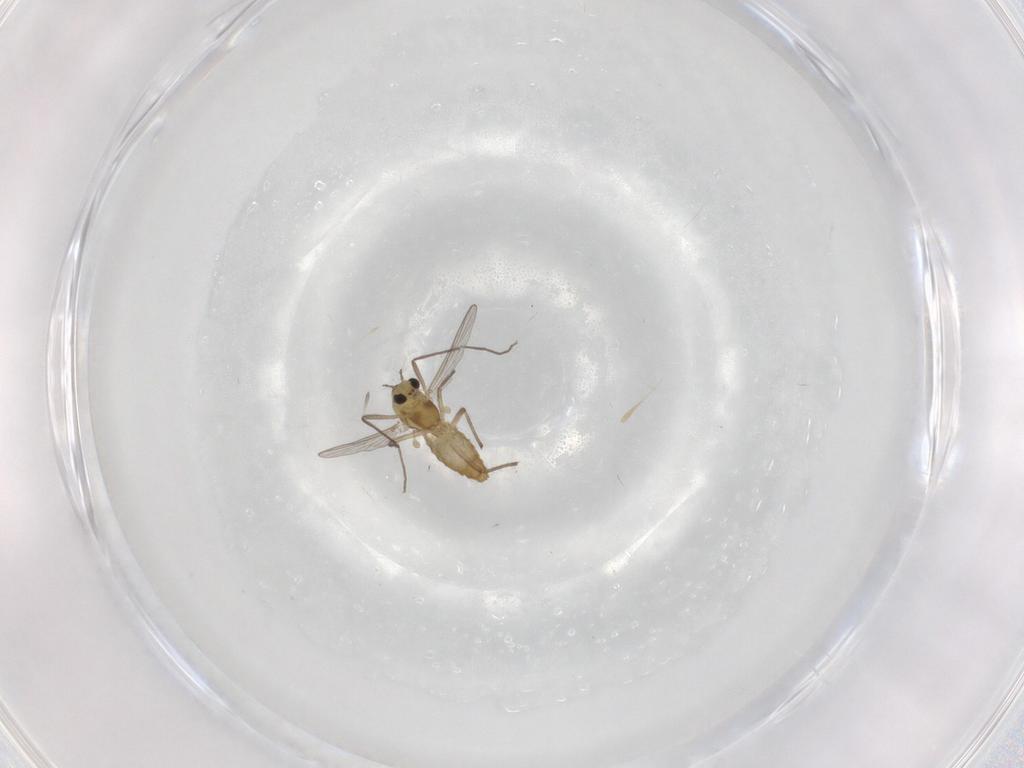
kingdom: Animalia
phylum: Arthropoda
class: Insecta
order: Diptera
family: Chironomidae
